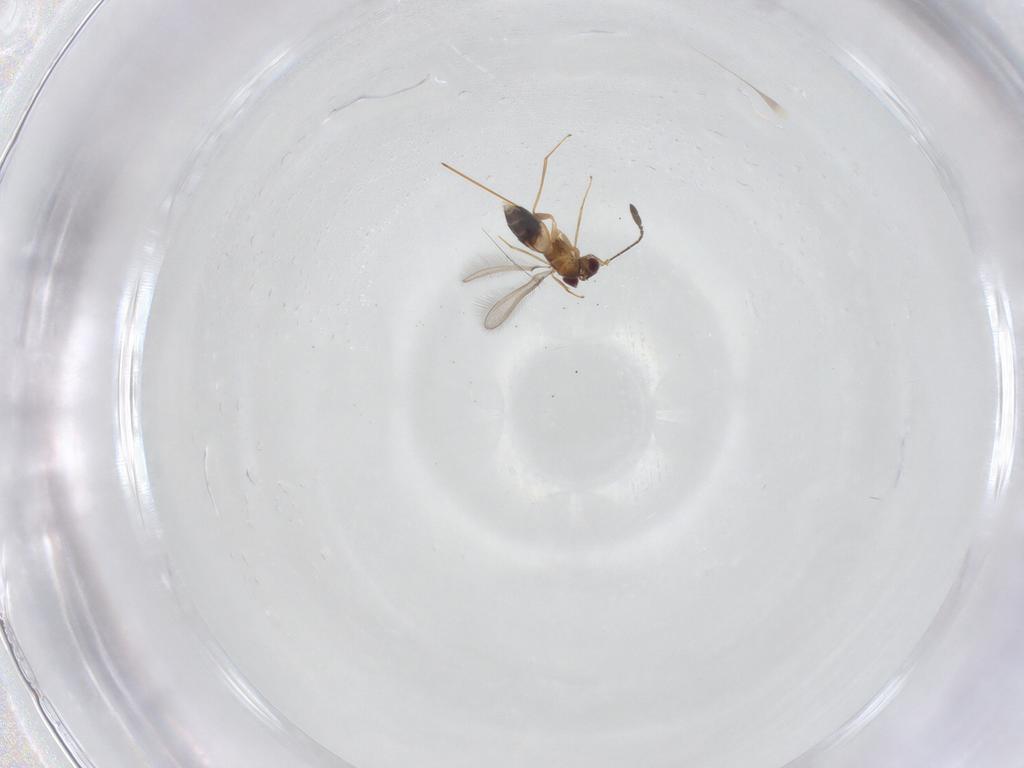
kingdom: Animalia
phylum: Arthropoda
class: Insecta
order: Hymenoptera
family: Mymaridae
